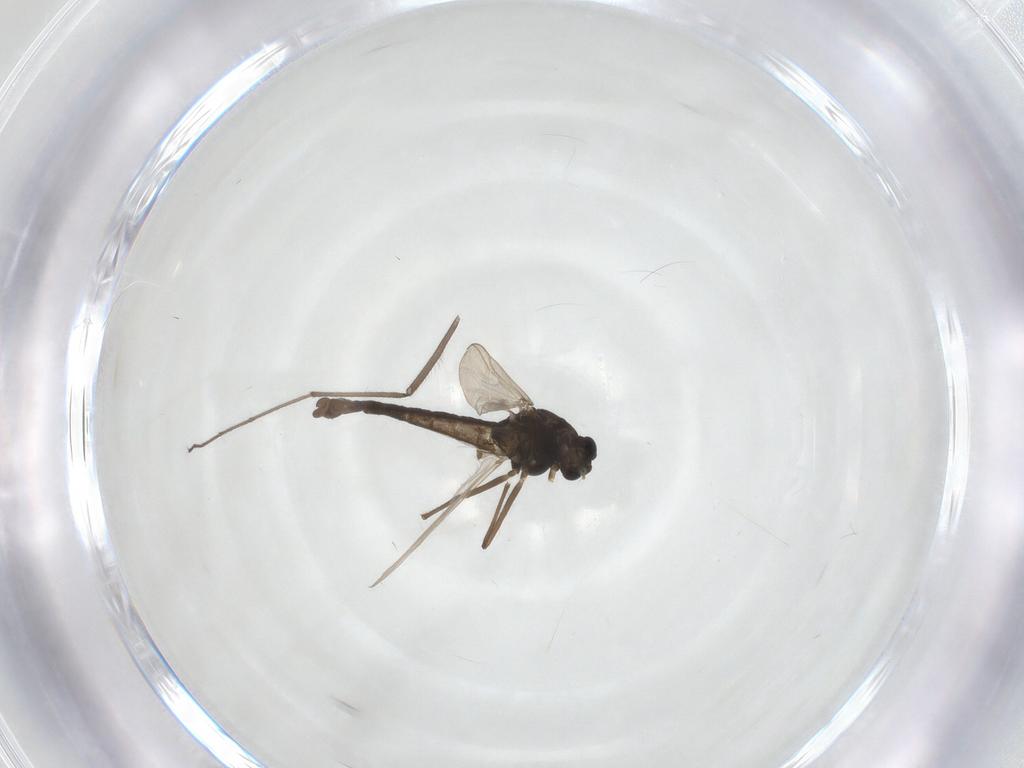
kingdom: Animalia
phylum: Arthropoda
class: Insecta
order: Diptera
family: Chironomidae
